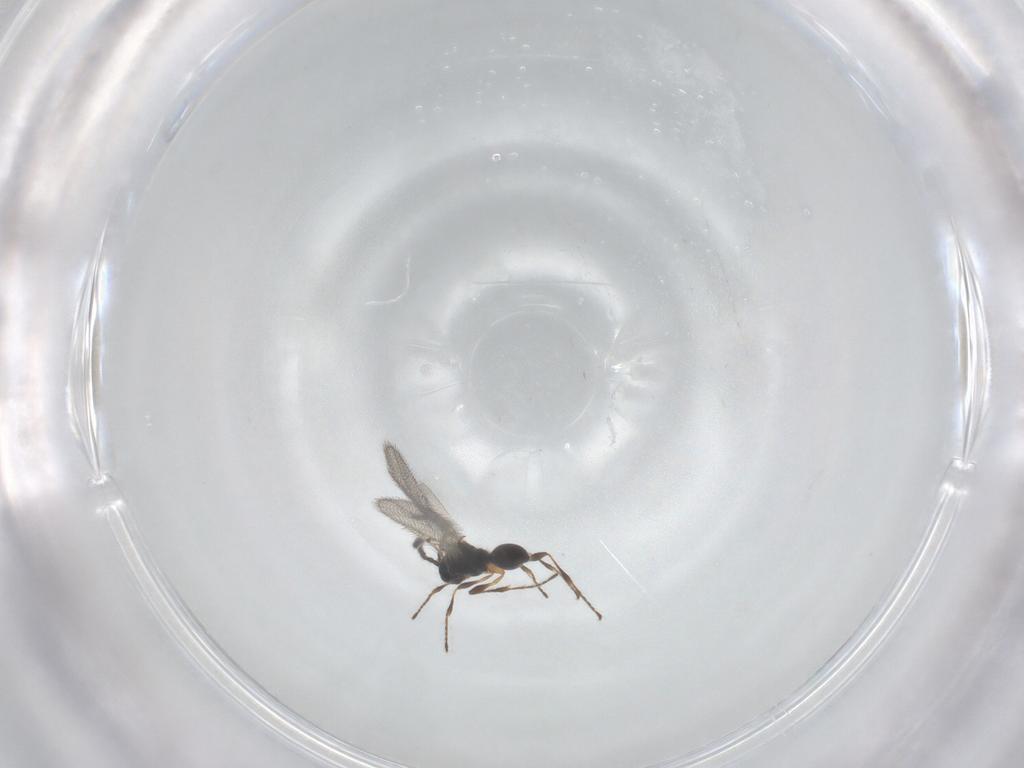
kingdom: Animalia
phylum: Arthropoda
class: Insecta
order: Hymenoptera
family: Diapriidae
